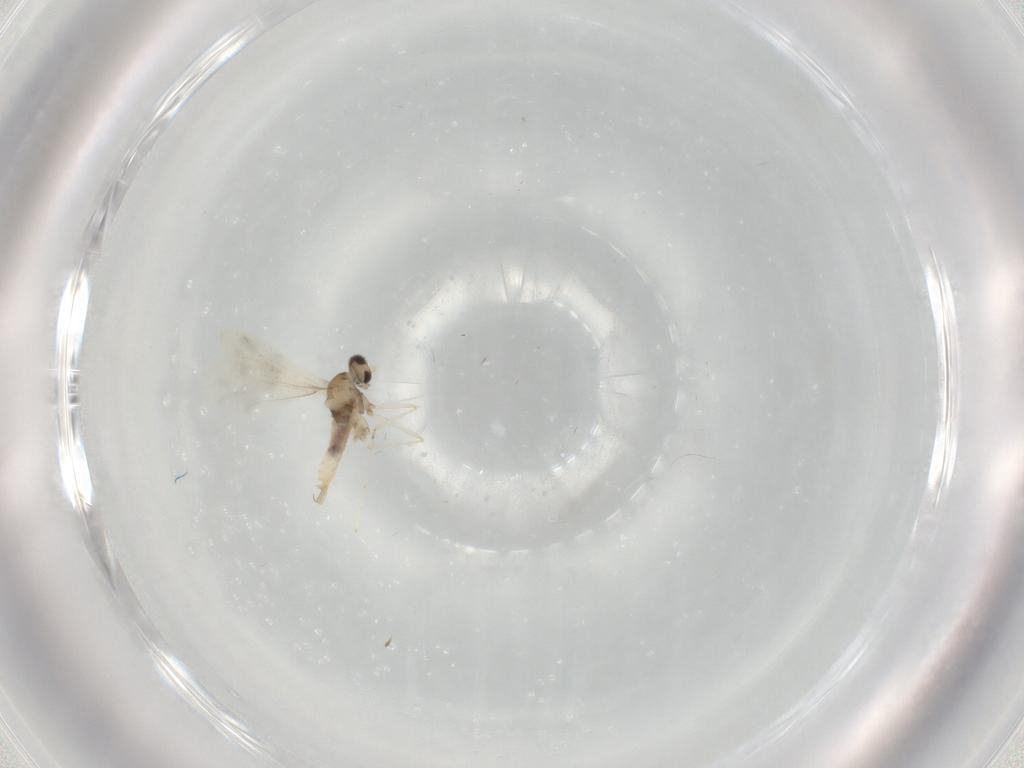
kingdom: Animalia
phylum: Arthropoda
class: Insecta
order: Diptera
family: Cecidomyiidae
